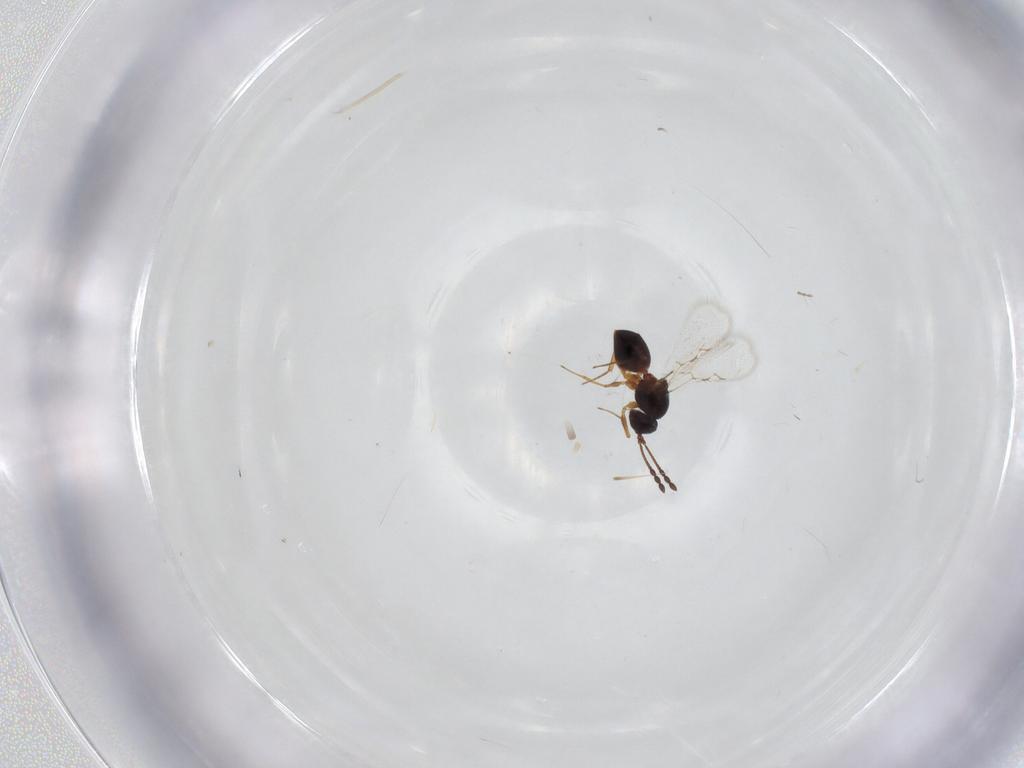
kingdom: Animalia
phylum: Arthropoda
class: Insecta
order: Hymenoptera
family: Figitidae
